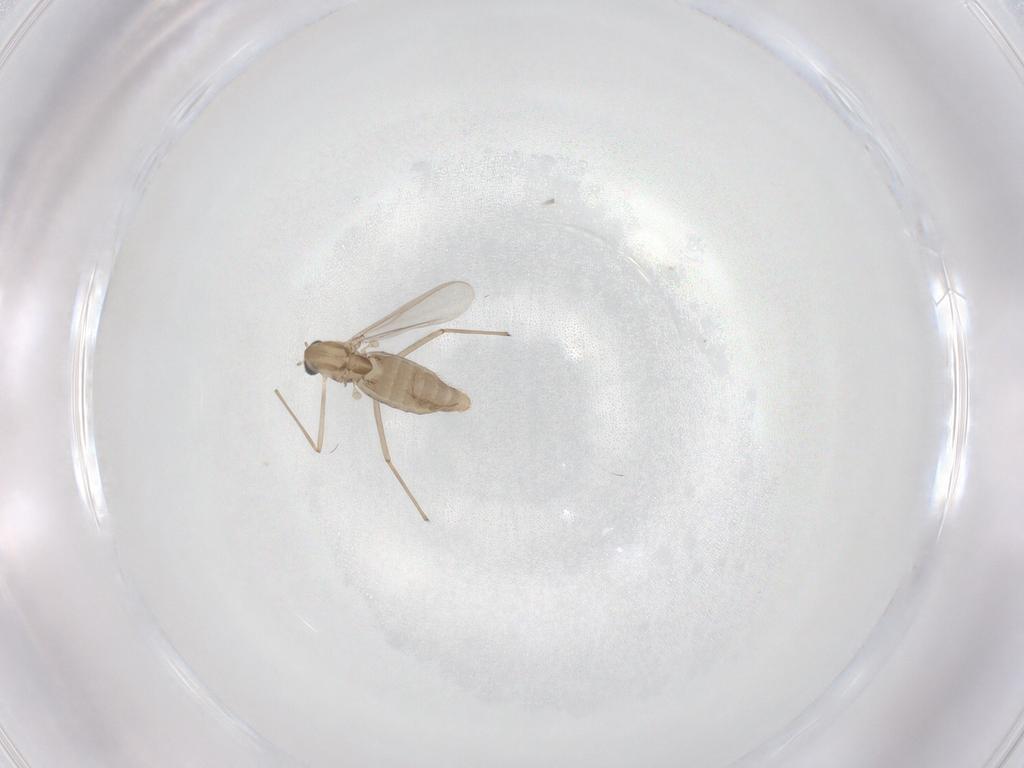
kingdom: Animalia
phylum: Arthropoda
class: Insecta
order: Diptera
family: Chironomidae
